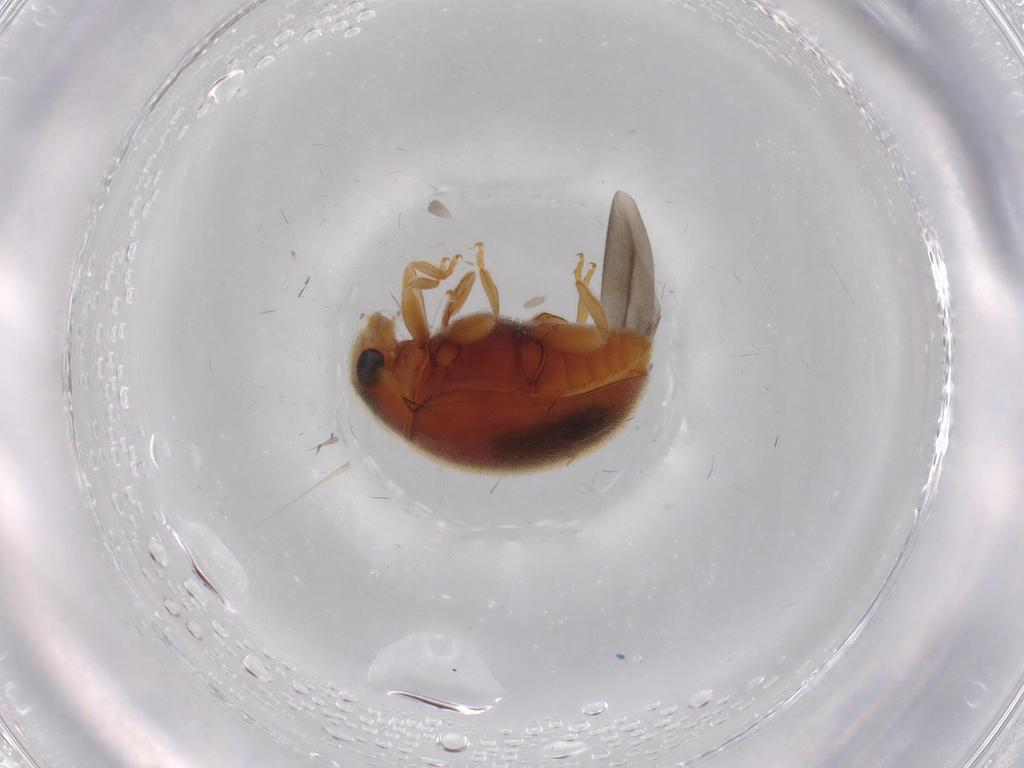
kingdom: Animalia
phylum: Arthropoda
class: Insecta
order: Coleoptera
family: Coccinellidae
